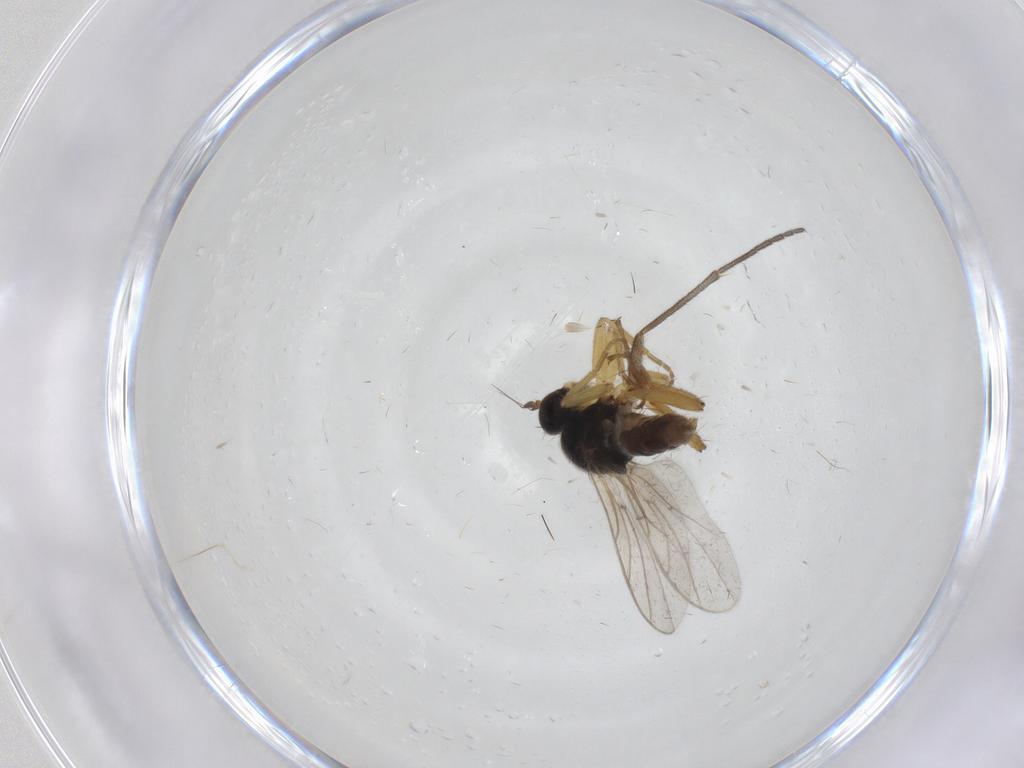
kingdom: Animalia
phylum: Arthropoda
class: Insecta
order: Diptera
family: Hybotidae
